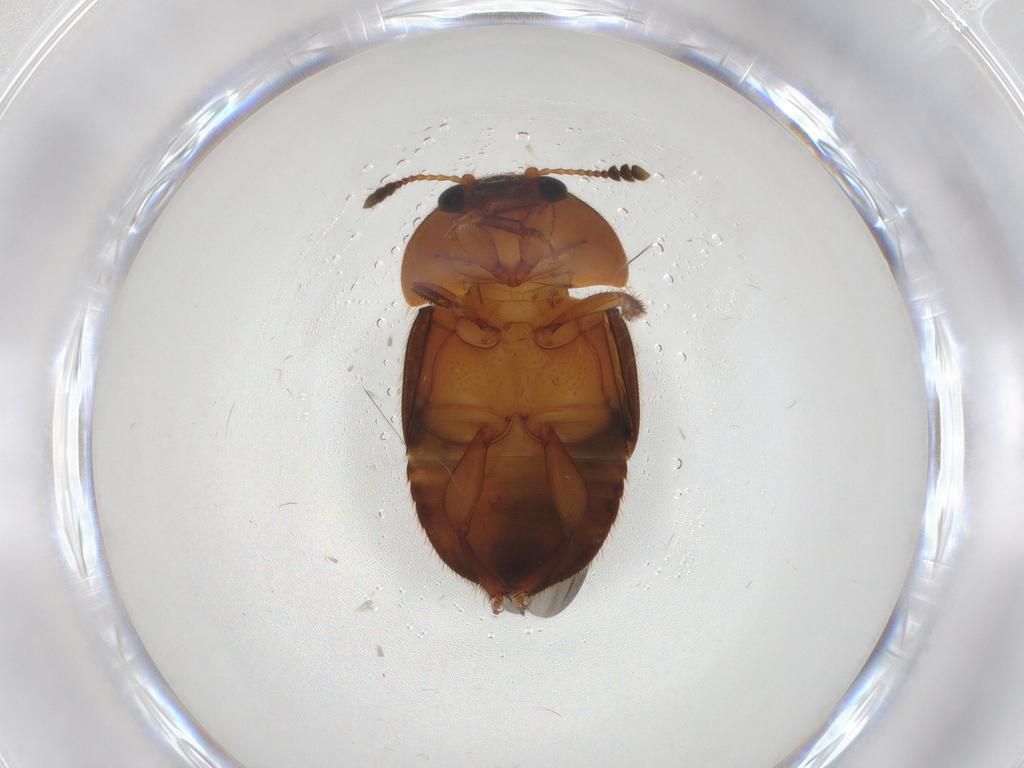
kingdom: Animalia
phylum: Arthropoda
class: Insecta
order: Coleoptera
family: Nitidulidae
